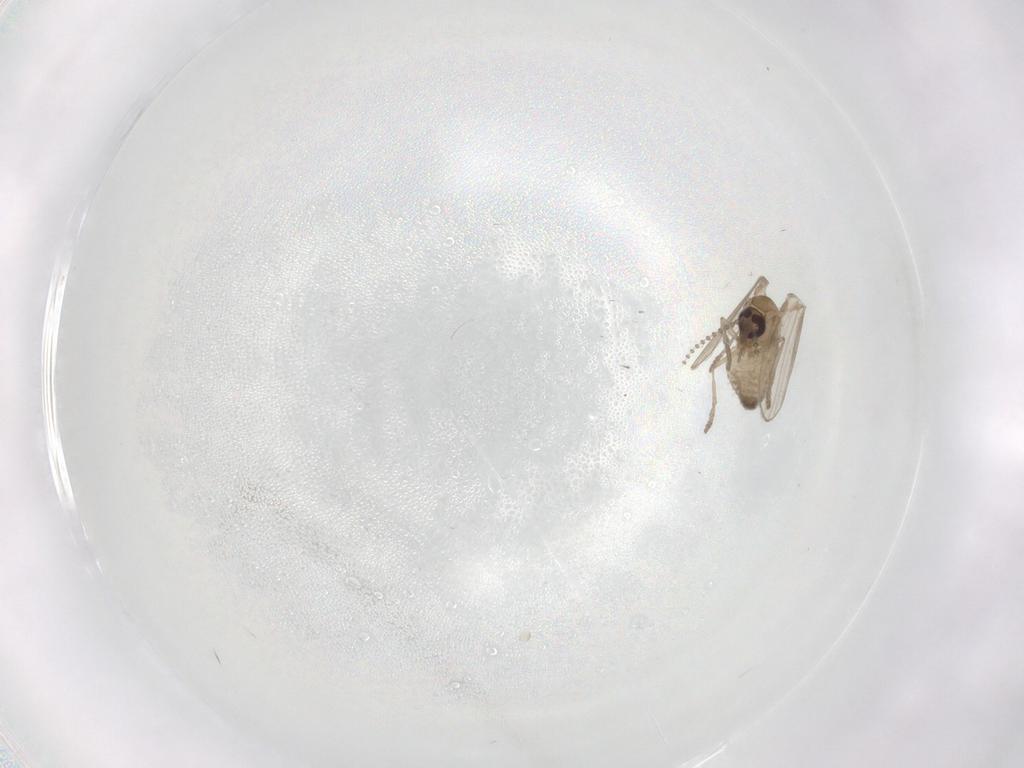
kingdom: Animalia
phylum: Arthropoda
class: Insecta
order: Diptera
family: Psychodidae
